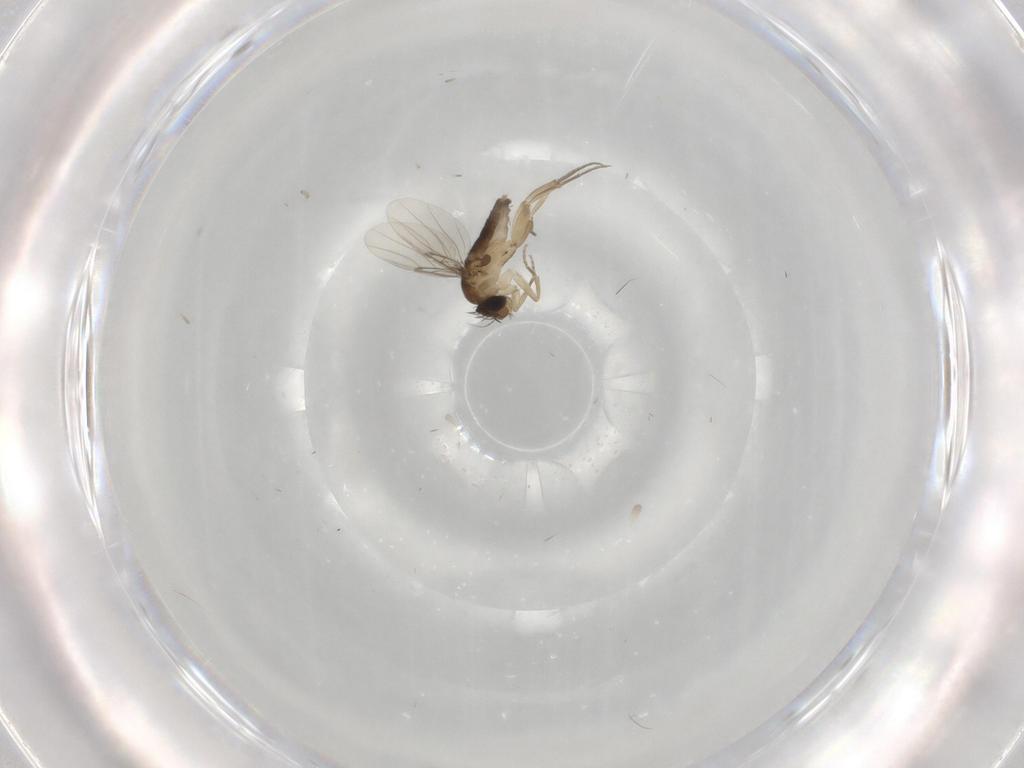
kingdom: Animalia
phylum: Arthropoda
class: Insecta
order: Diptera
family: Phoridae
